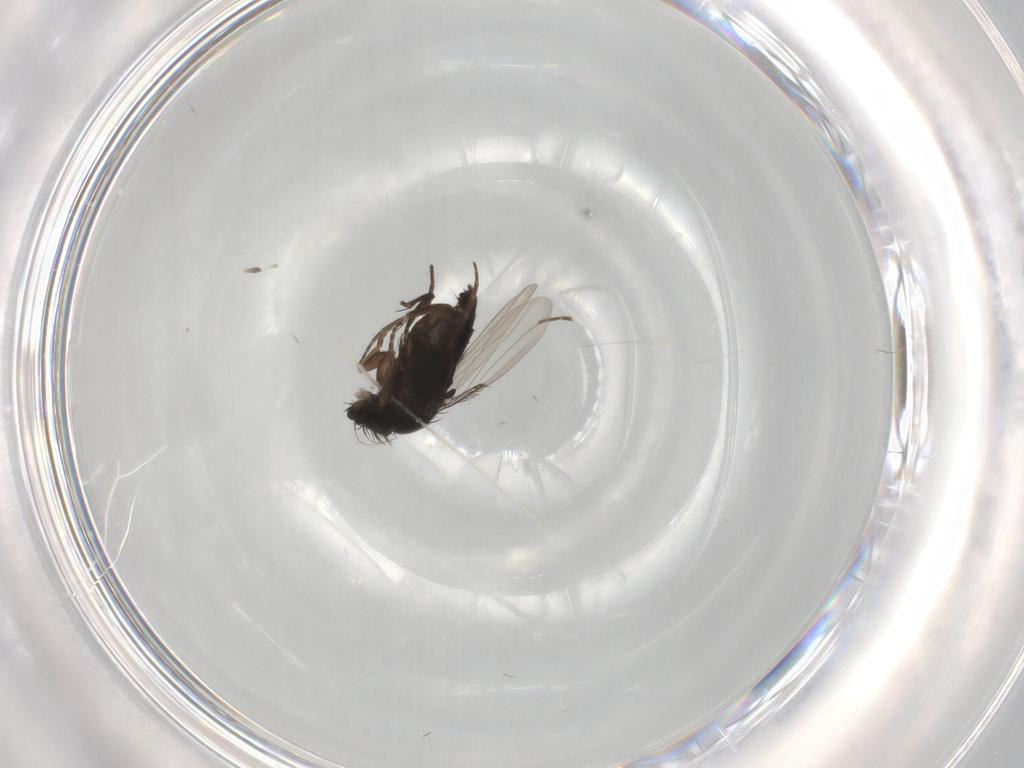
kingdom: Animalia
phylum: Arthropoda
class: Insecta
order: Diptera
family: Phoridae
